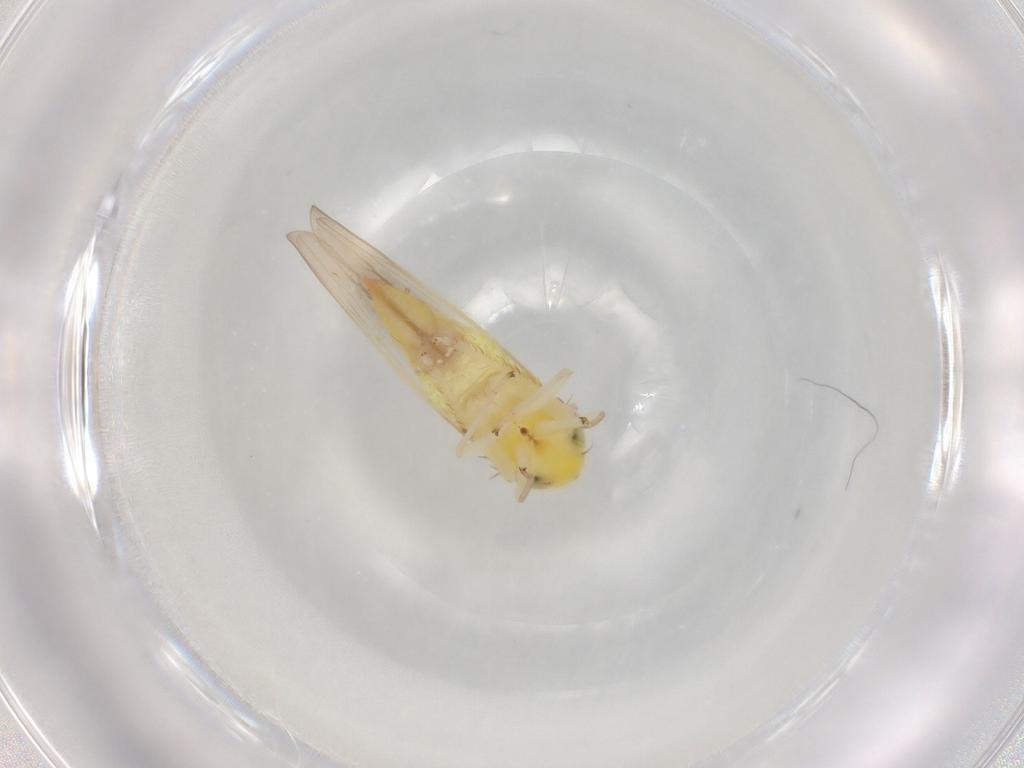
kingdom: Animalia
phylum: Arthropoda
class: Insecta
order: Hemiptera
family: Cicadellidae
